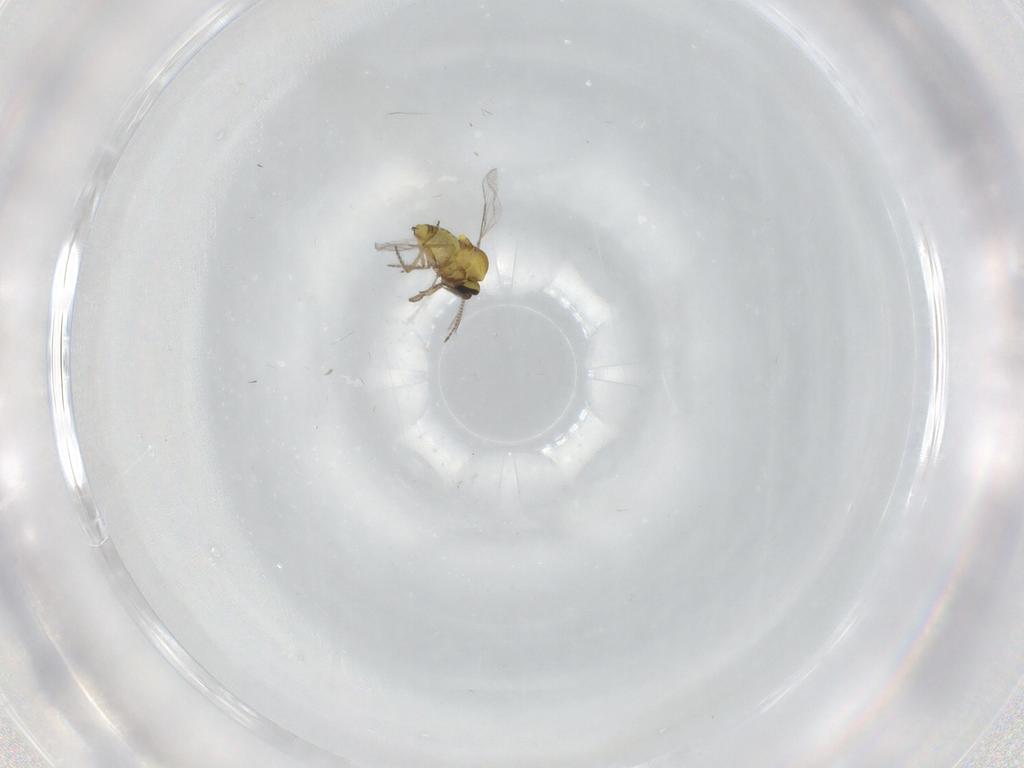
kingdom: Animalia
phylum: Arthropoda
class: Insecta
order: Diptera
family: Ceratopogonidae
